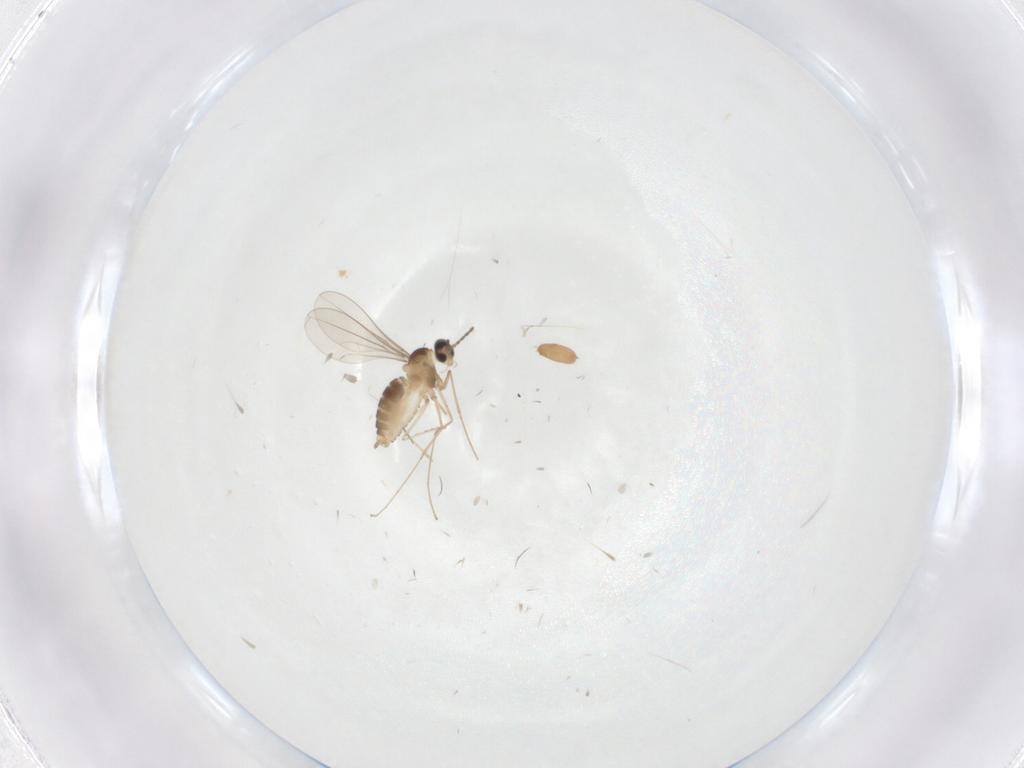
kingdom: Animalia
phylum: Arthropoda
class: Insecta
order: Diptera
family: Cecidomyiidae
